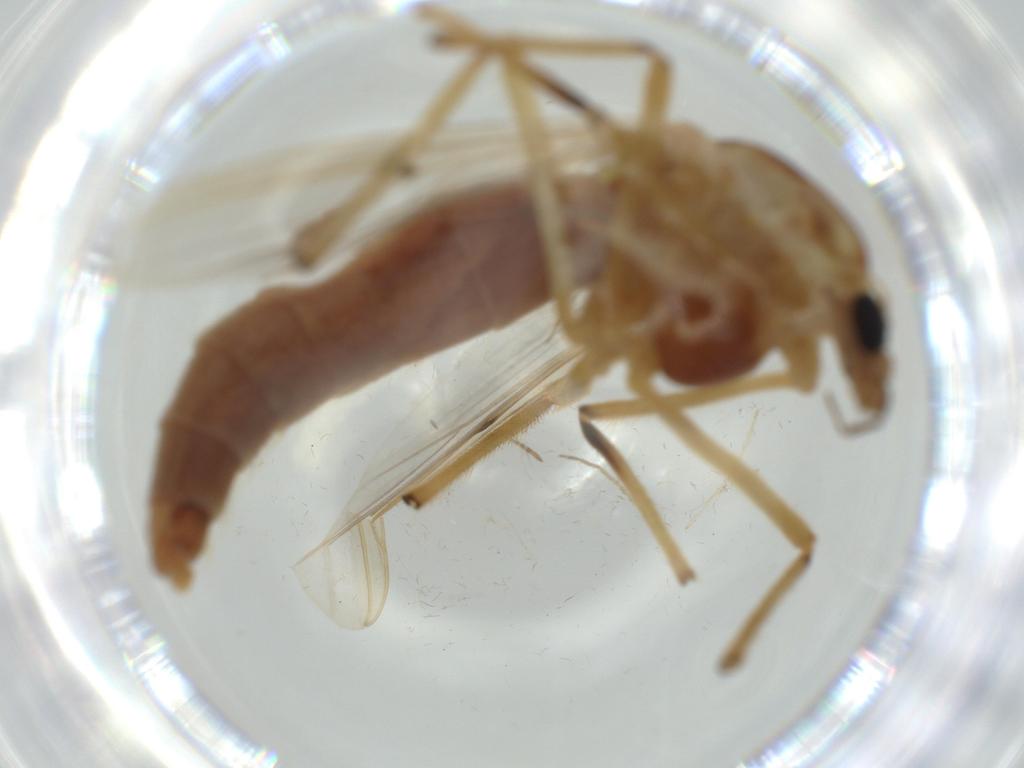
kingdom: Animalia
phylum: Arthropoda
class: Insecta
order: Diptera
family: Chironomidae
